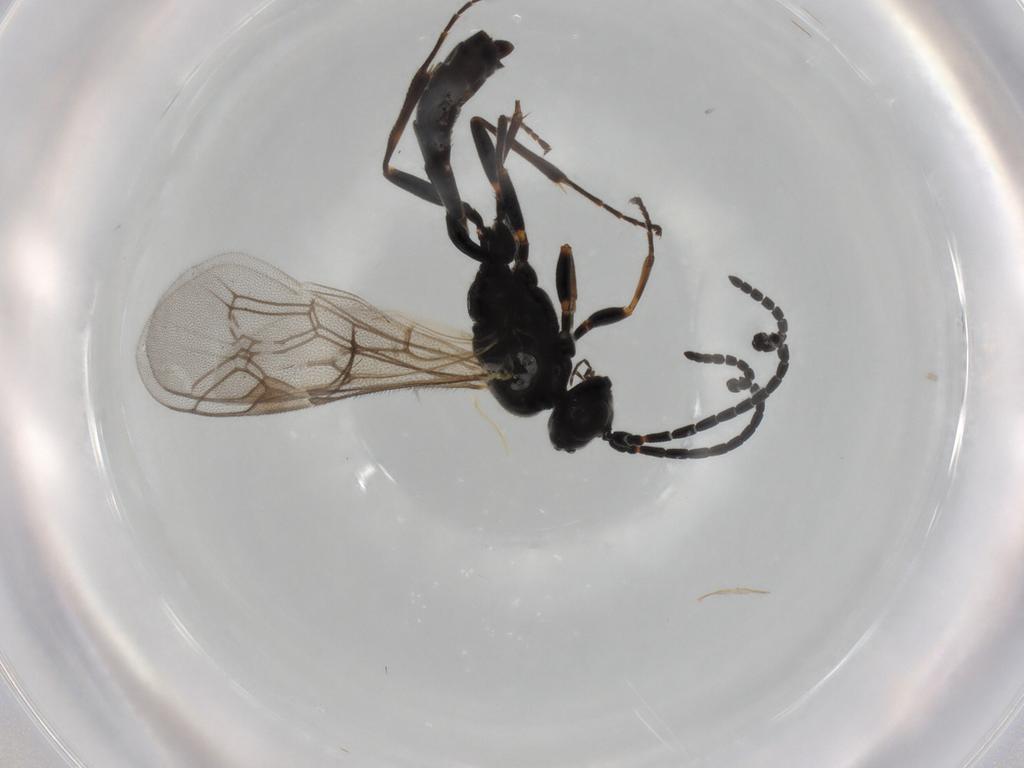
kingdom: Animalia
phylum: Arthropoda
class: Insecta
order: Hymenoptera
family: Ichneumonidae
